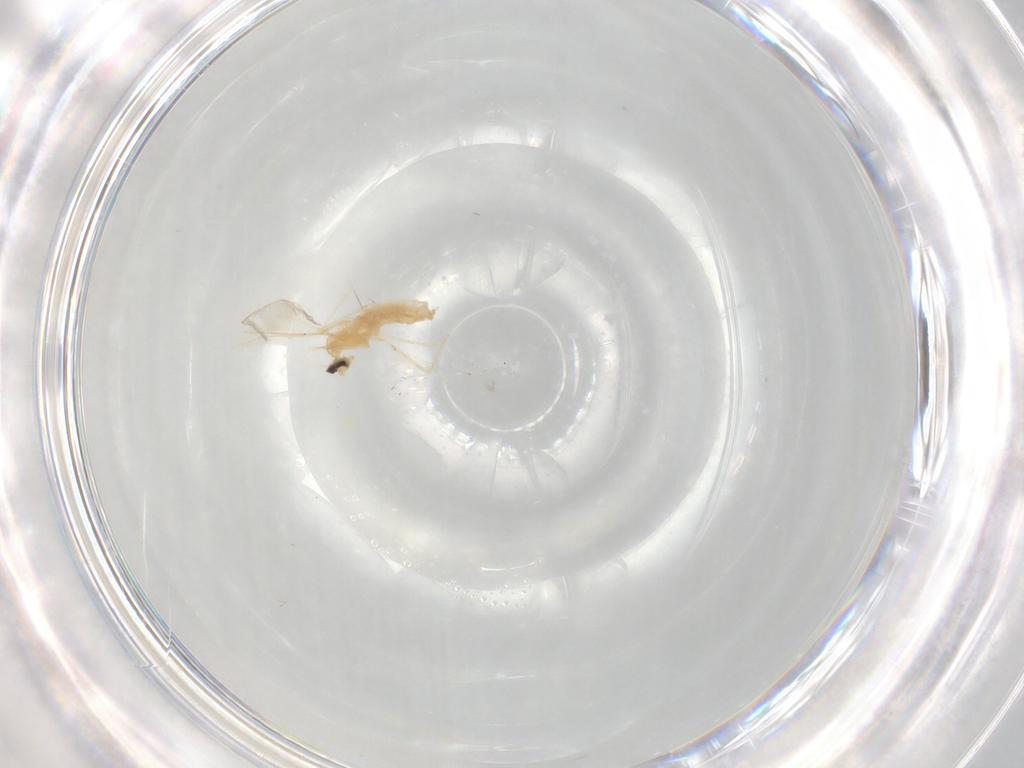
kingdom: Animalia
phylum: Arthropoda
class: Insecta
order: Diptera
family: Cecidomyiidae
